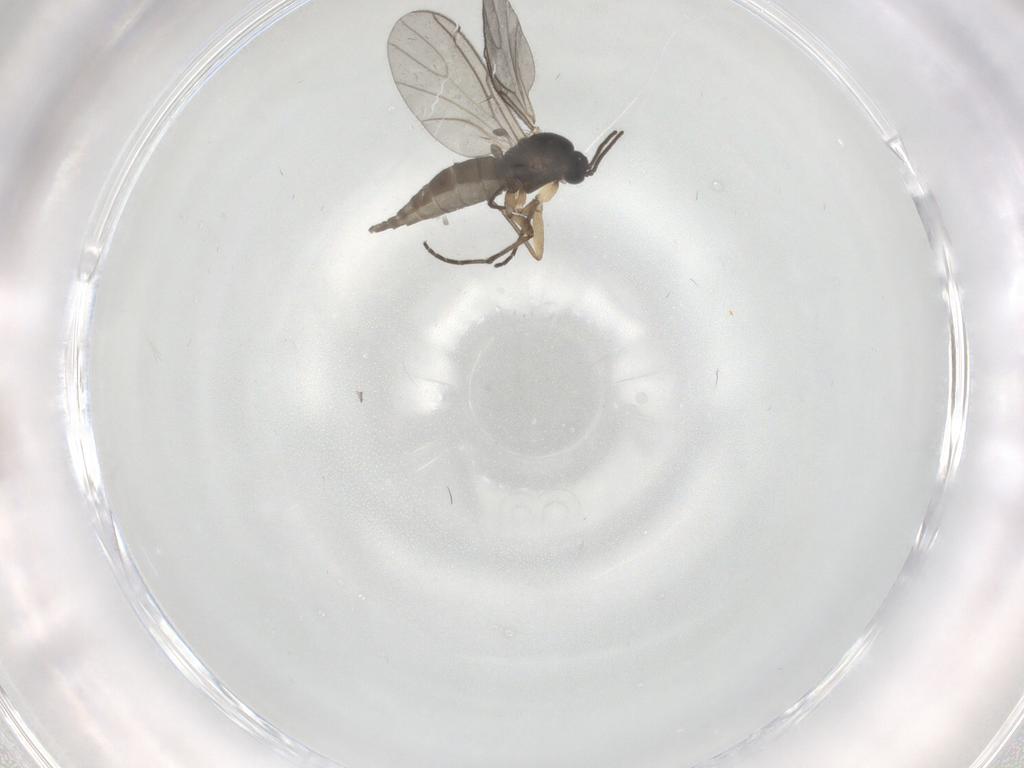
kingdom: Animalia
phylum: Arthropoda
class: Insecta
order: Diptera
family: Sciaridae
